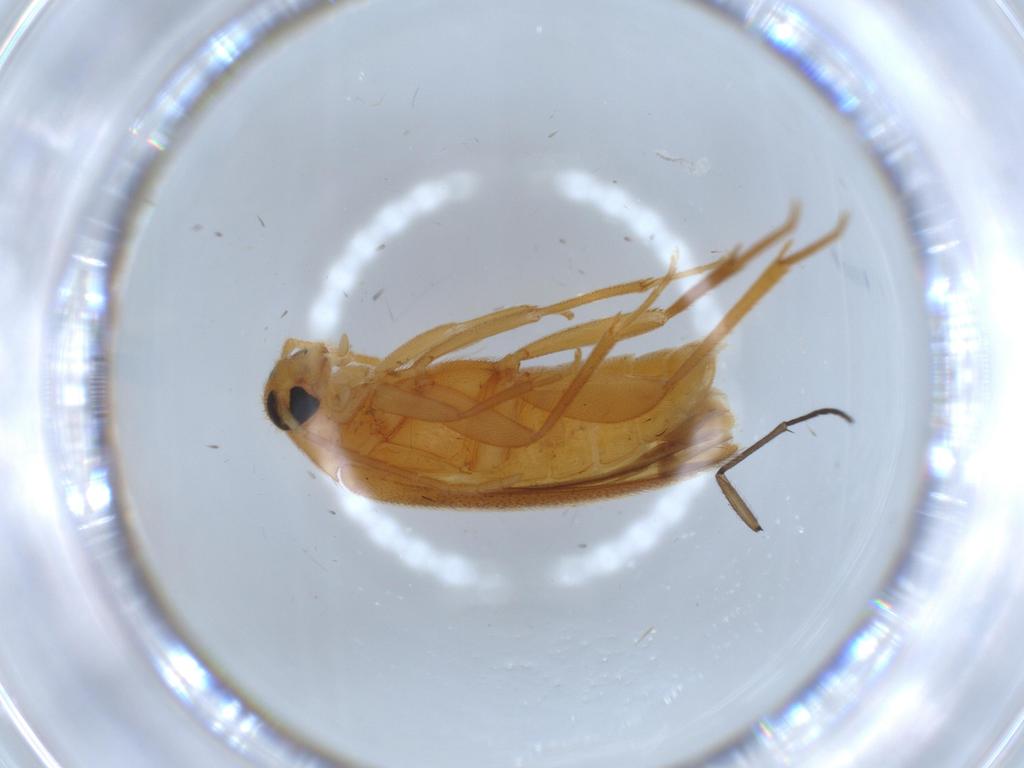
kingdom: Animalia
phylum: Arthropoda
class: Insecta
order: Coleoptera
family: Scraptiidae
